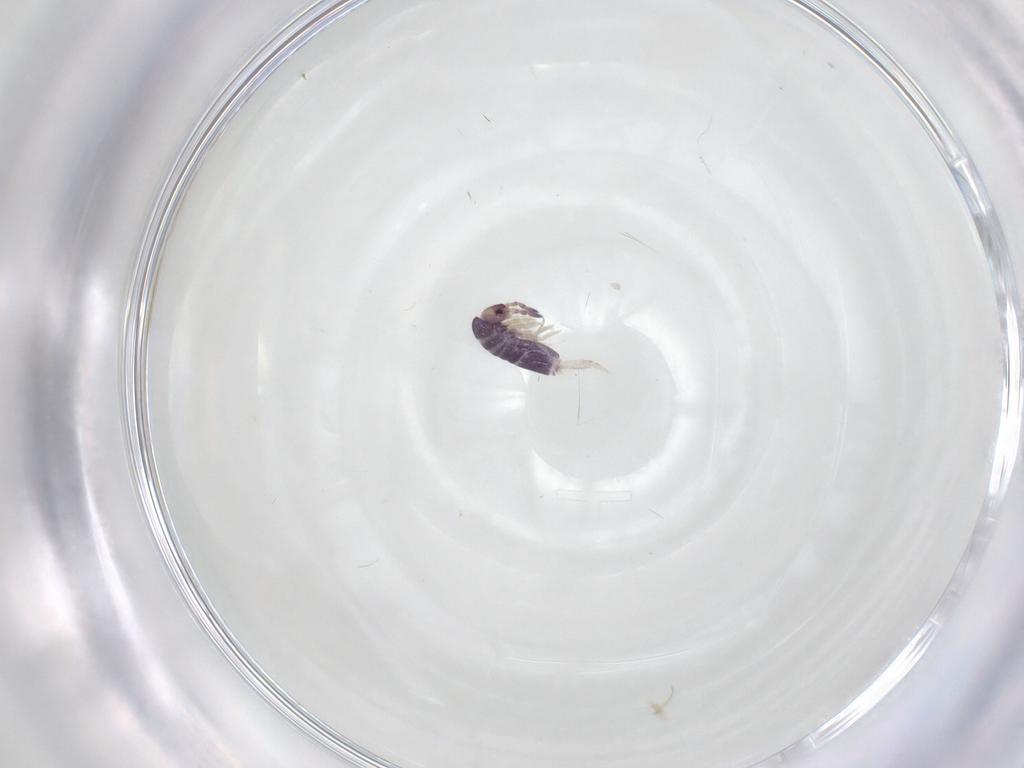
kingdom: Animalia
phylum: Arthropoda
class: Collembola
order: Entomobryomorpha
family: Entomobryidae
